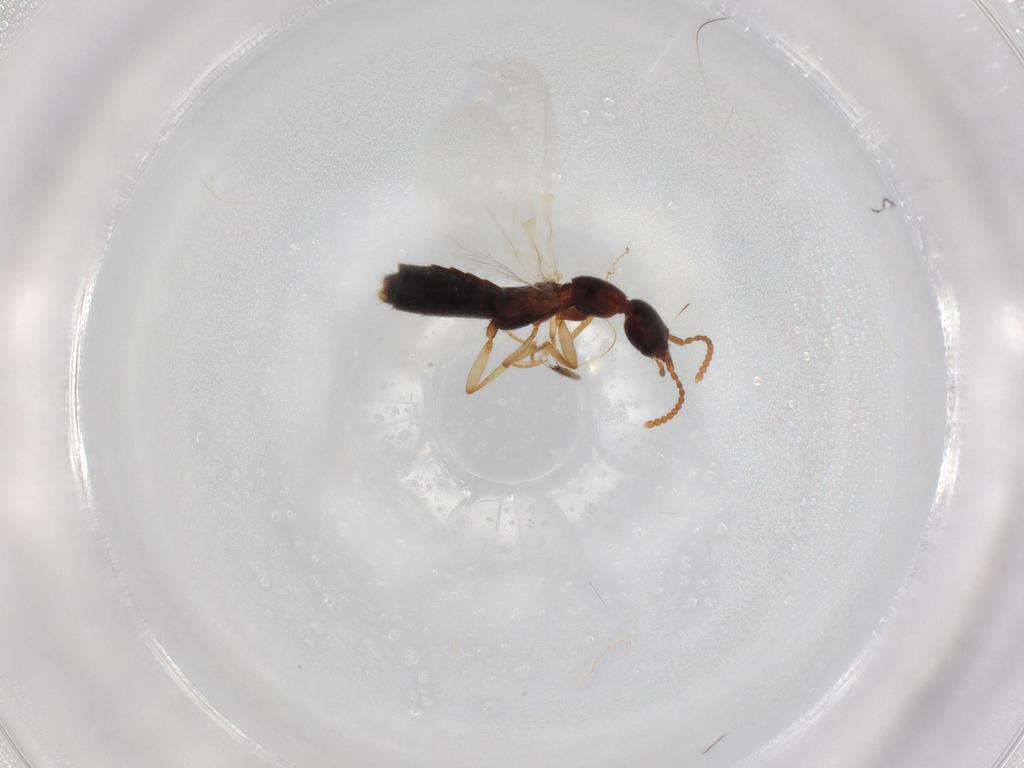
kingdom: Animalia
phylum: Arthropoda
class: Insecta
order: Coleoptera
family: Staphylinidae
